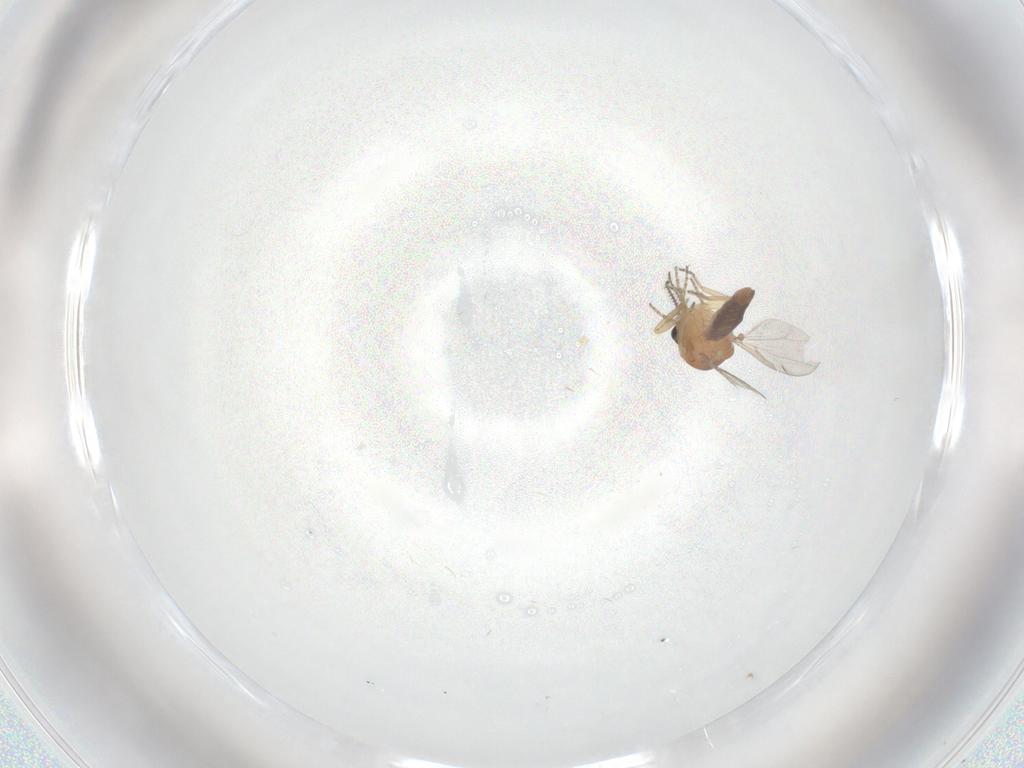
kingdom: Animalia
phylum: Arthropoda
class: Insecta
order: Diptera
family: Ceratopogonidae
